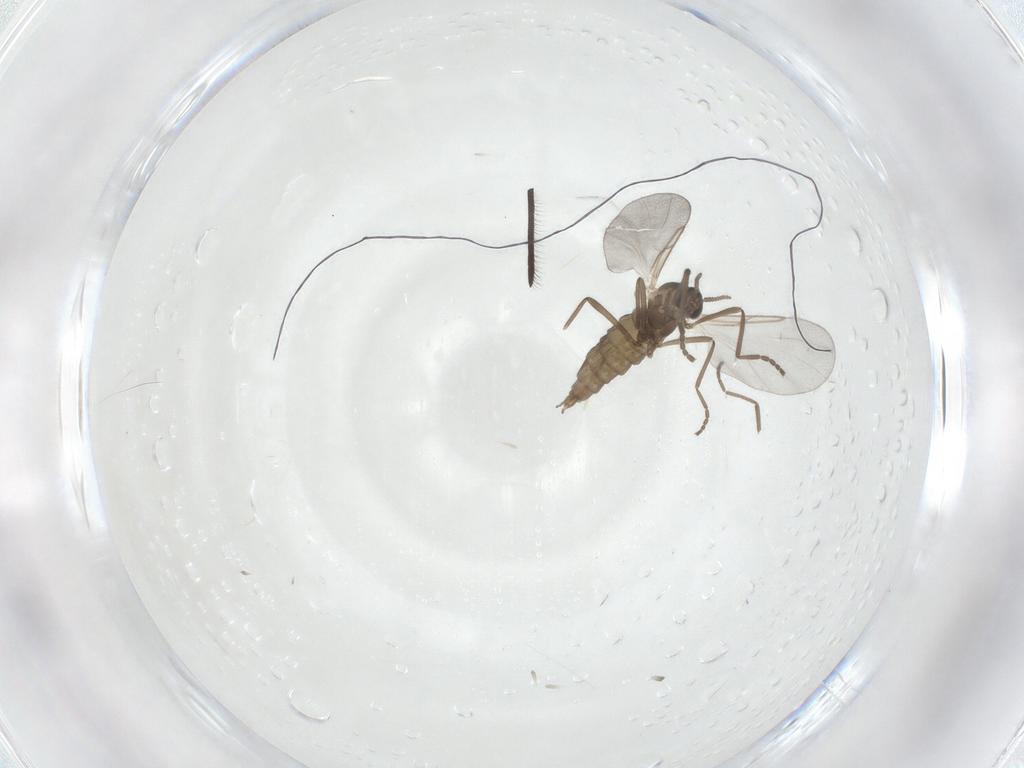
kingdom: Animalia
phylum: Arthropoda
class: Insecta
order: Diptera
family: Cecidomyiidae
